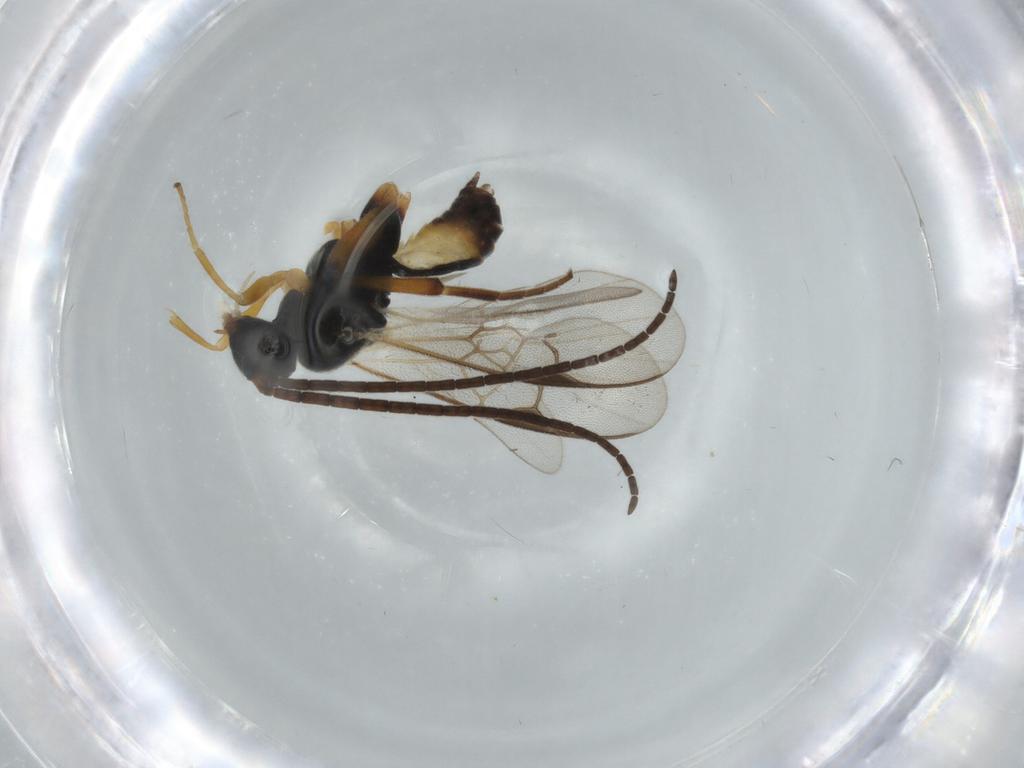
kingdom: Animalia
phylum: Arthropoda
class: Insecta
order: Hymenoptera
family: Braconidae
